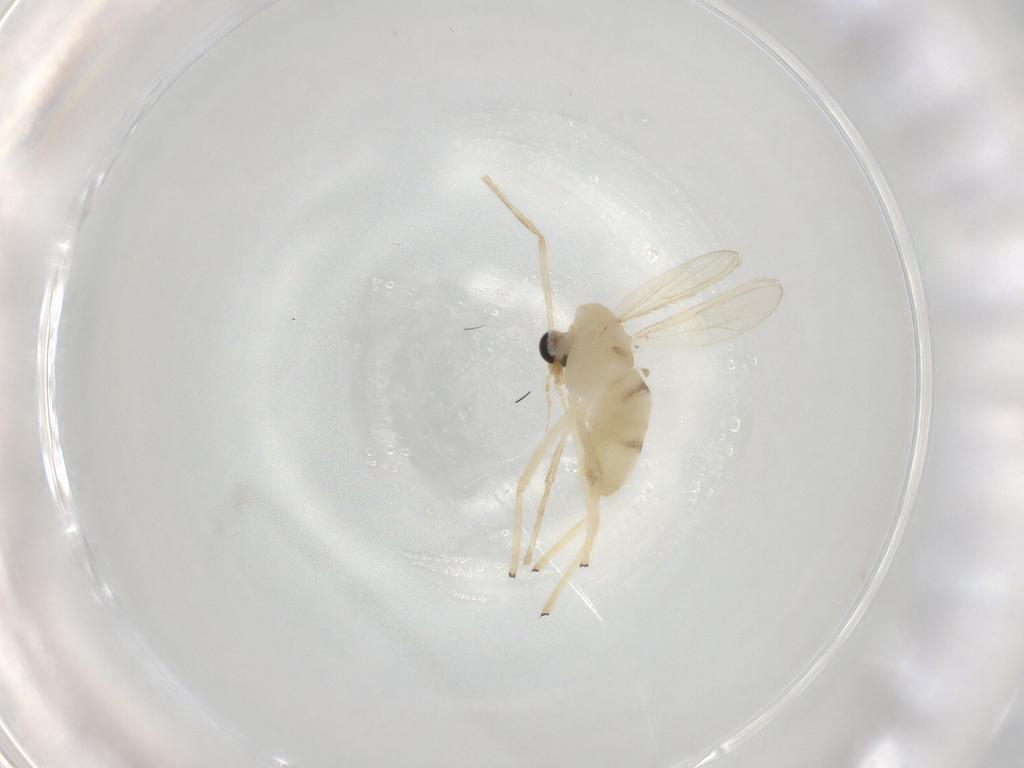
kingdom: Animalia
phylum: Arthropoda
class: Insecta
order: Diptera
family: Chironomidae
